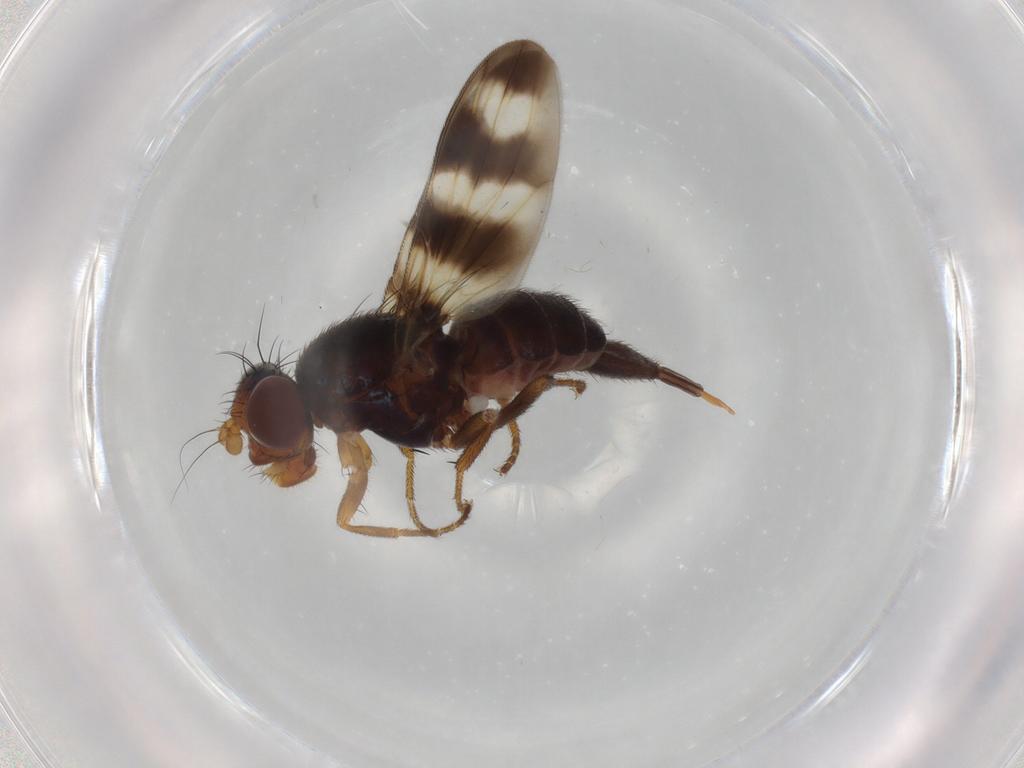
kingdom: Animalia
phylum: Arthropoda
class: Insecta
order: Diptera
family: Ulidiidae
